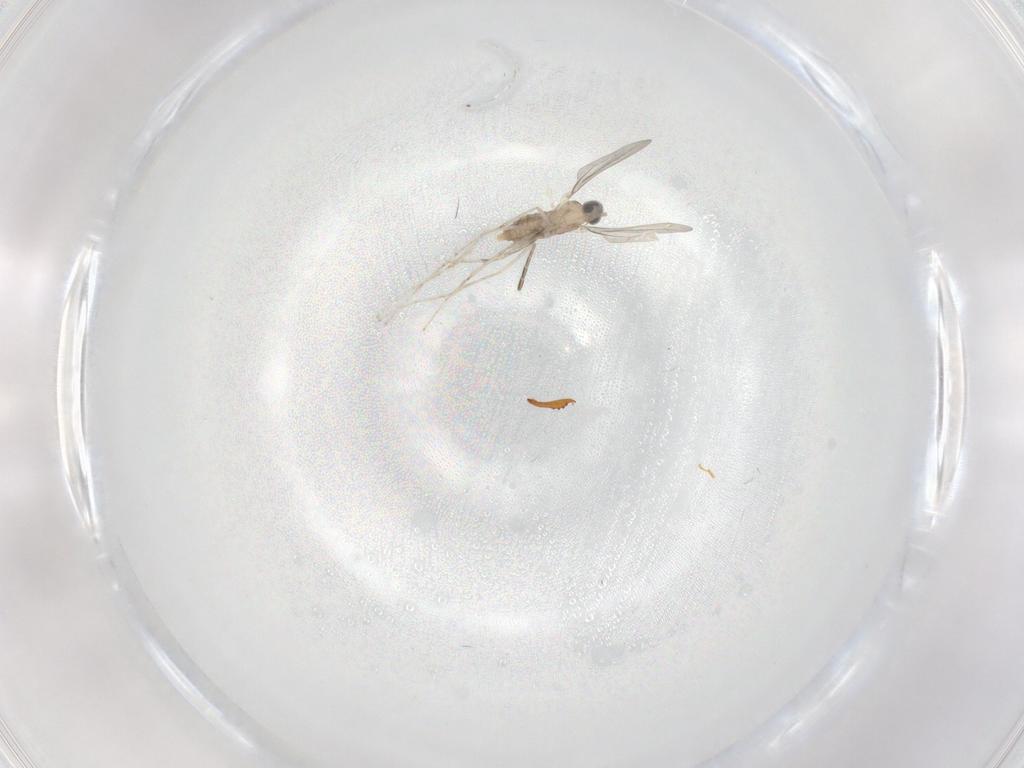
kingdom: Animalia
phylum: Arthropoda
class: Insecta
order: Diptera
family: Cecidomyiidae
